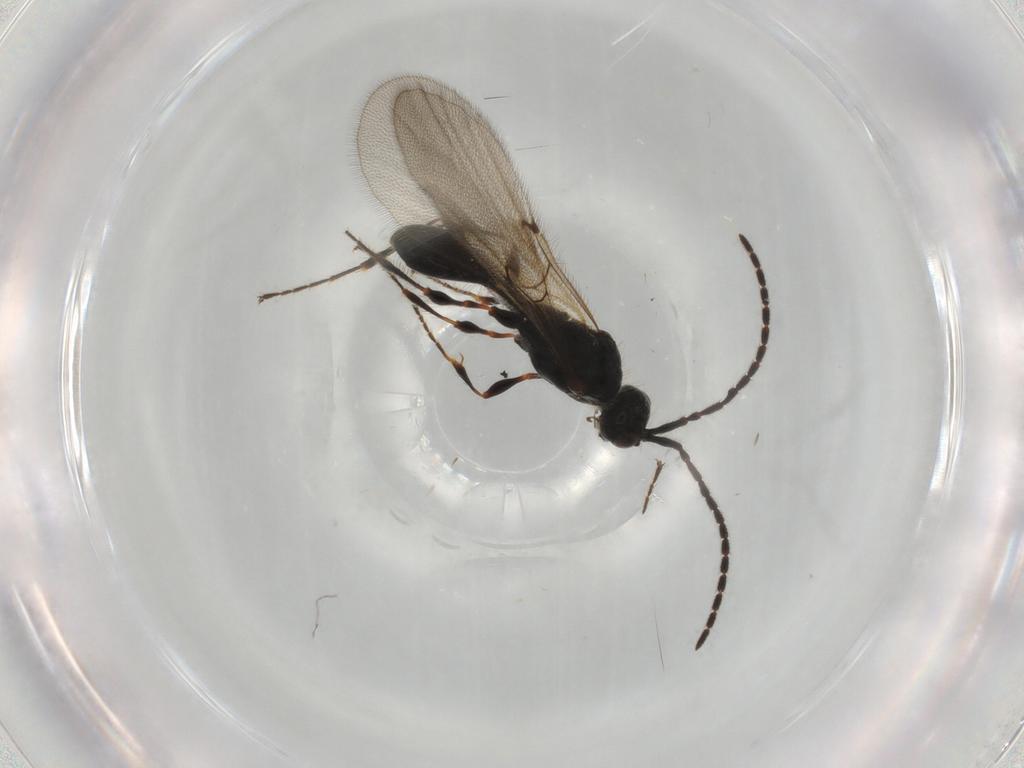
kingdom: Animalia
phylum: Arthropoda
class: Insecta
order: Hymenoptera
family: Diapriidae
